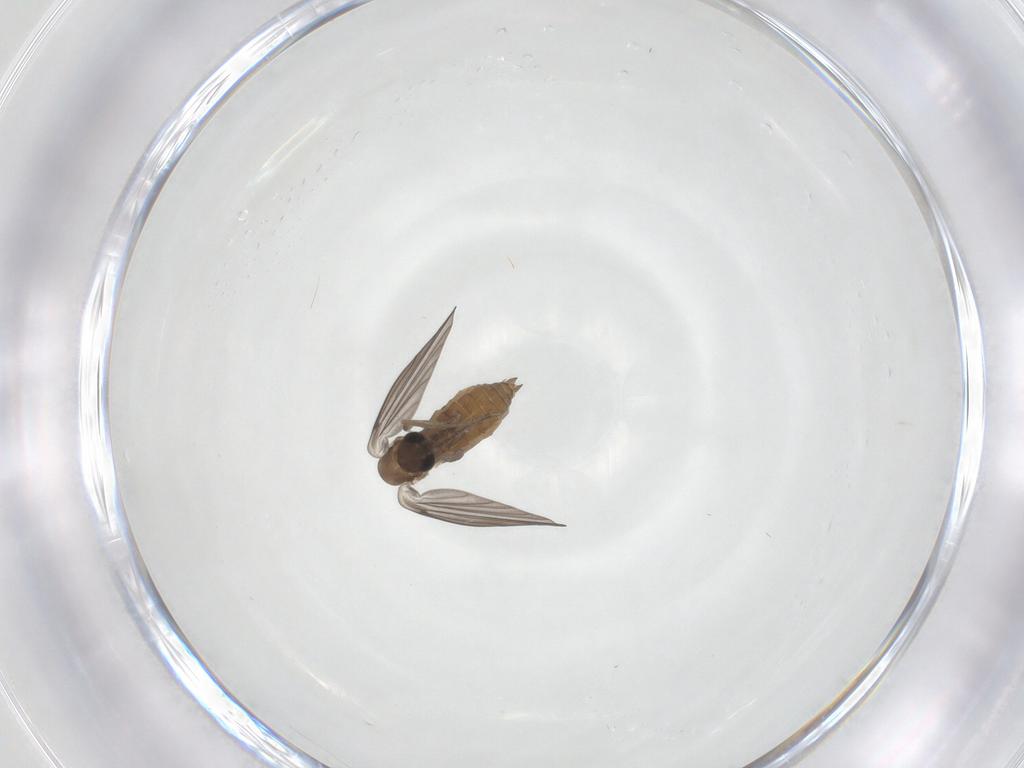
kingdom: Animalia
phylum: Arthropoda
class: Insecta
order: Diptera
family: Psychodidae
